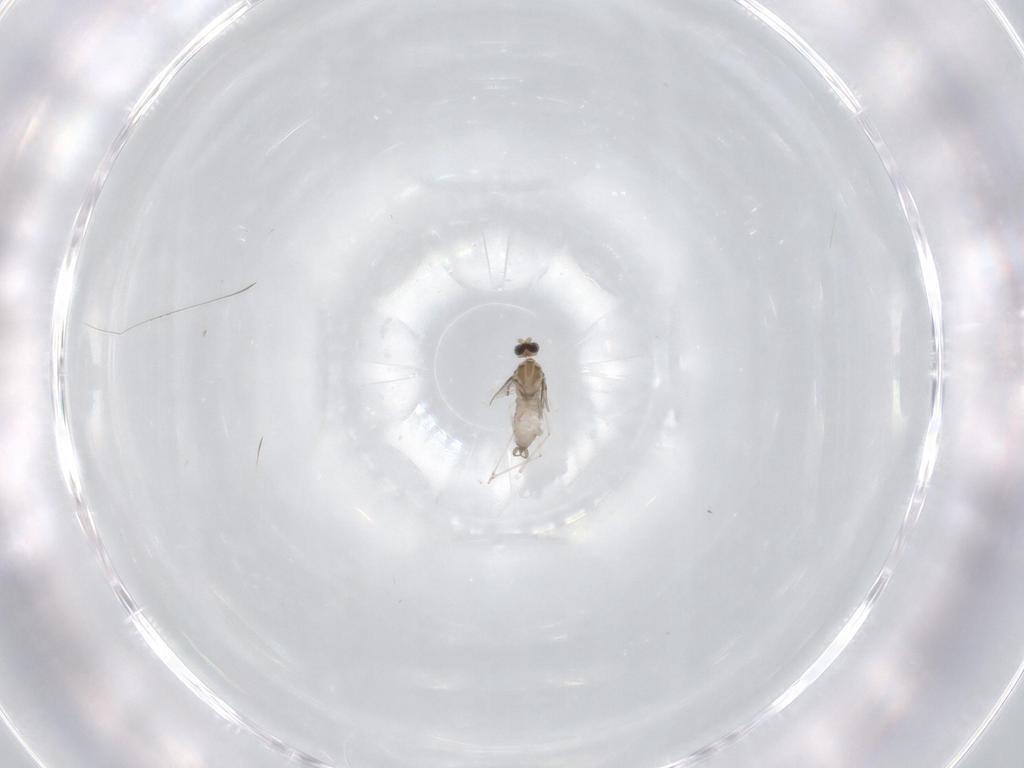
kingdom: Animalia
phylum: Arthropoda
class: Insecta
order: Diptera
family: Cecidomyiidae
